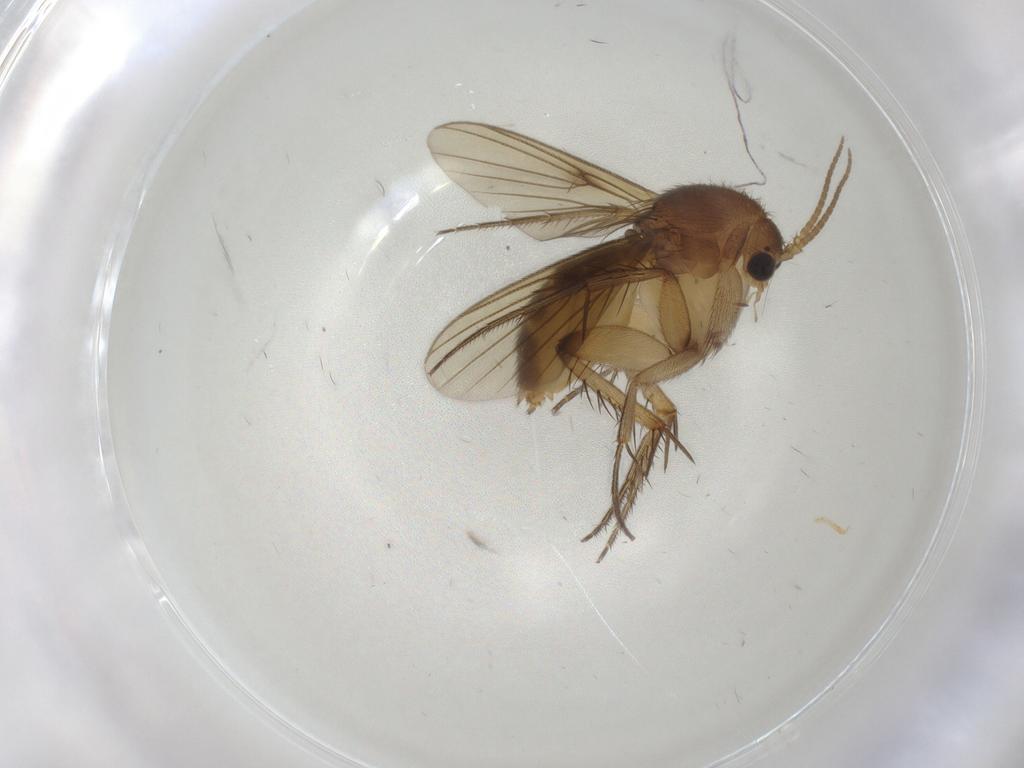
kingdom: Animalia
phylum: Arthropoda
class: Insecta
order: Diptera
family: Mycetophilidae
